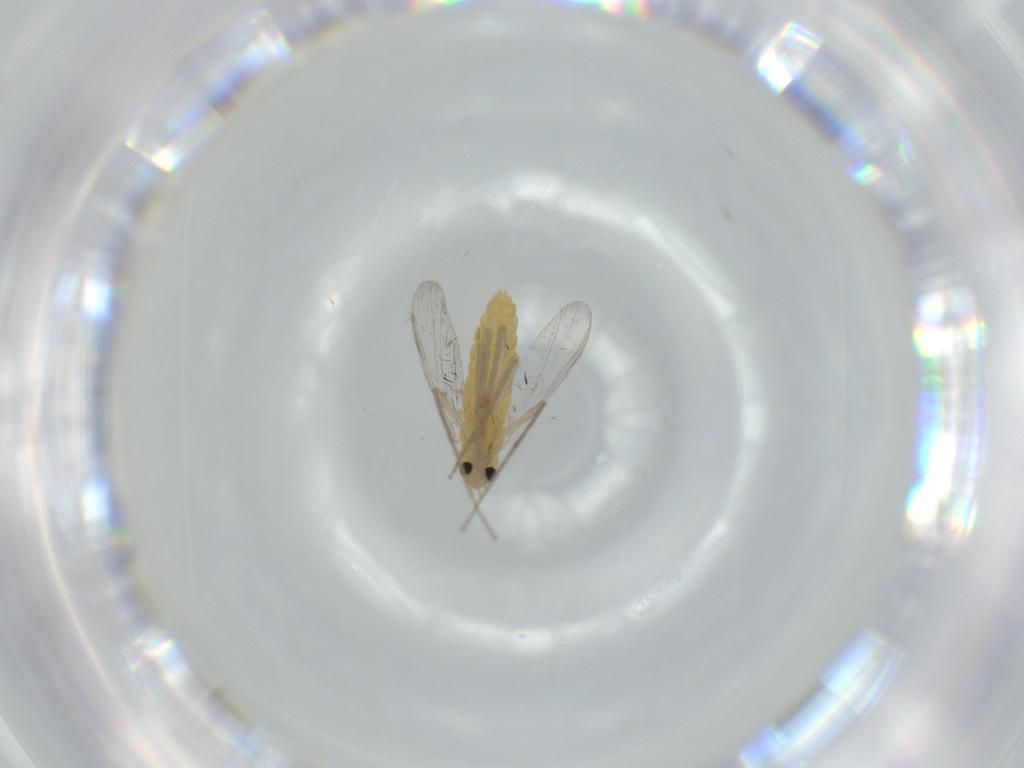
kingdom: Animalia
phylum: Arthropoda
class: Insecta
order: Diptera
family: Chironomidae
